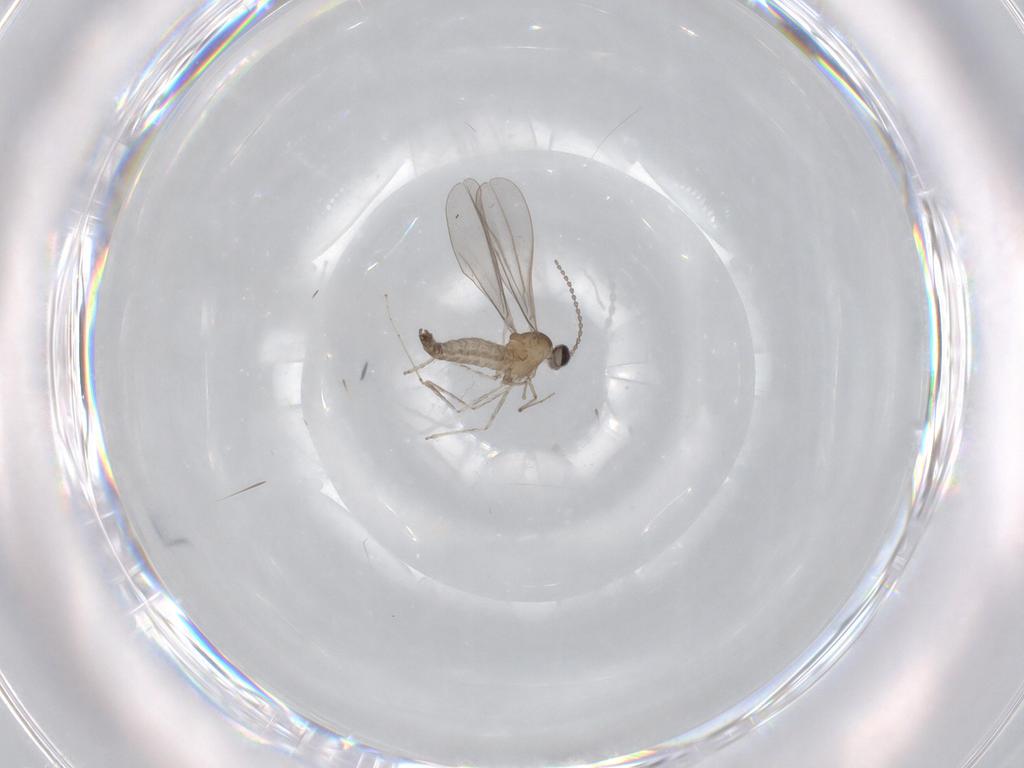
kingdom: Animalia
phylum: Arthropoda
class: Insecta
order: Diptera
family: Cecidomyiidae
